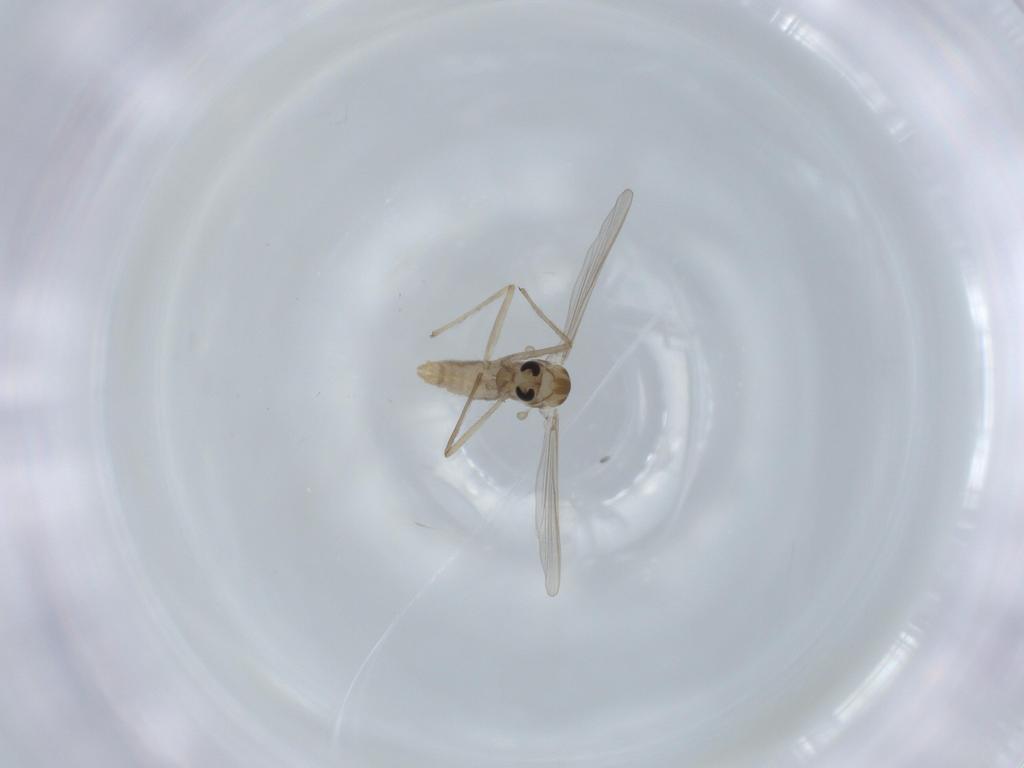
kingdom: Animalia
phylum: Arthropoda
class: Insecta
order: Diptera
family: Chironomidae
